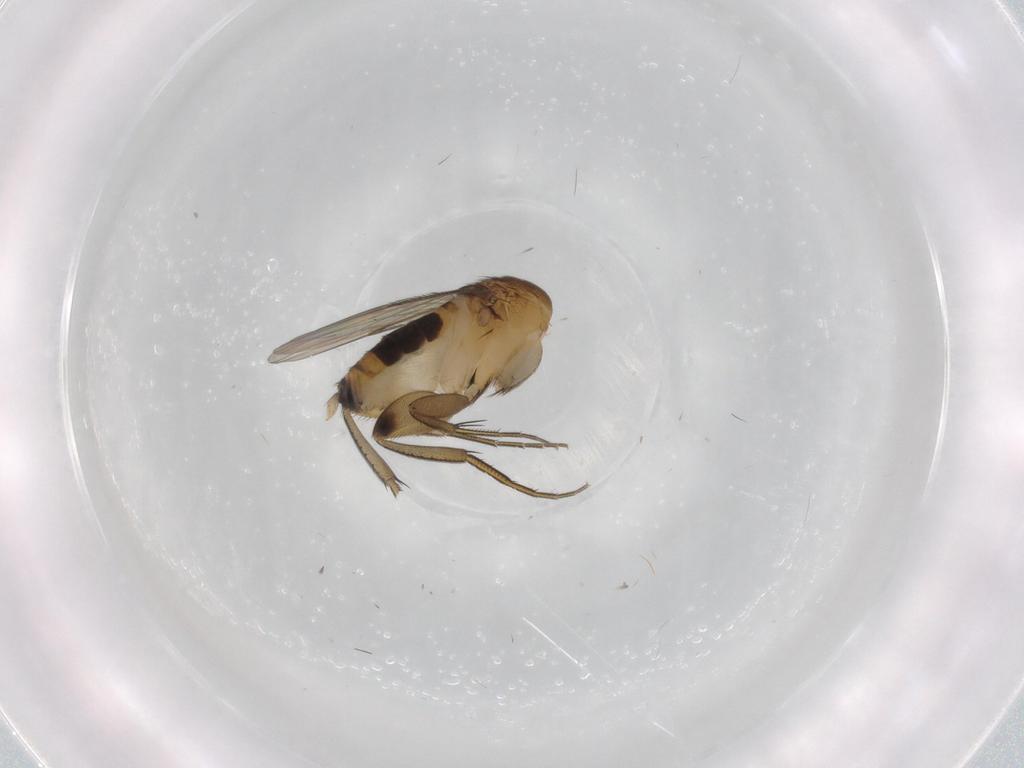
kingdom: Animalia
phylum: Arthropoda
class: Insecta
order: Diptera
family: Phoridae
